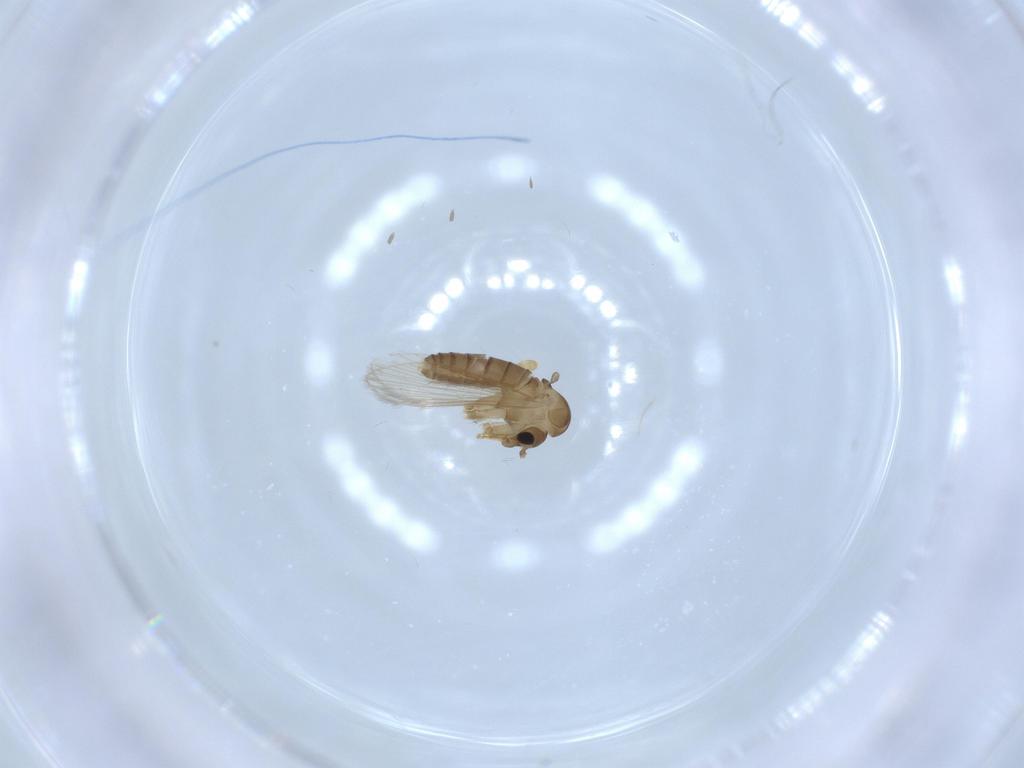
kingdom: Animalia
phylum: Arthropoda
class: Insecta
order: Diptera
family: Psychodidae
